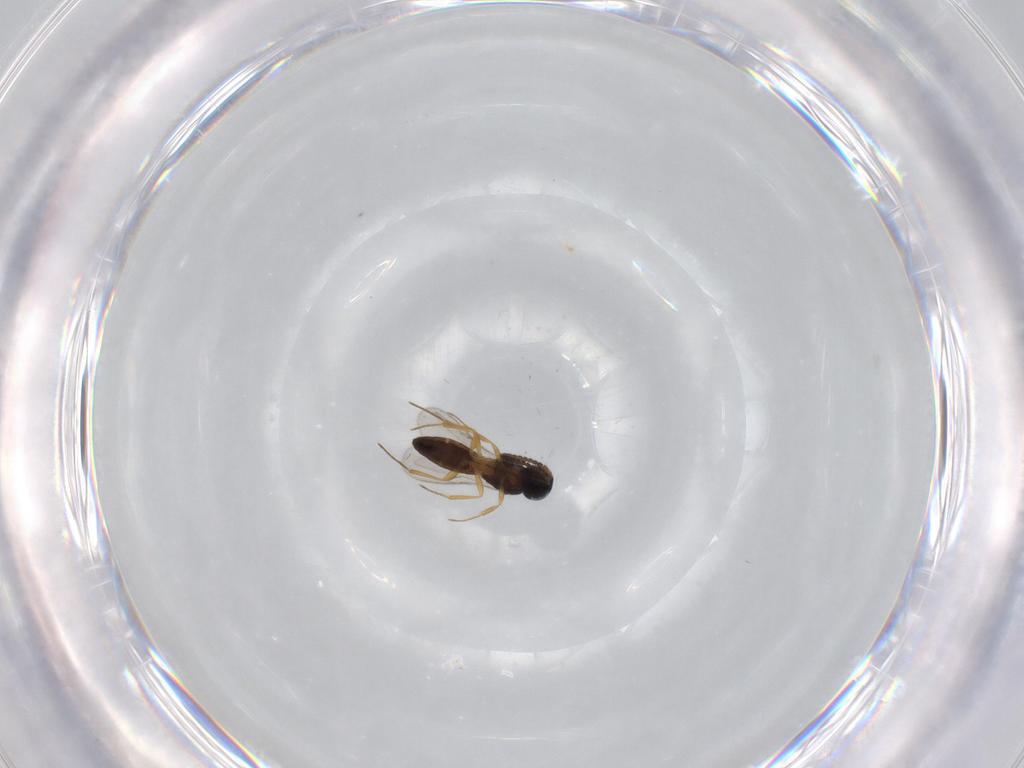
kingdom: Animalia
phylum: Arthropoda
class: Insecta
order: Hymenoptera
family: Scelionidae
